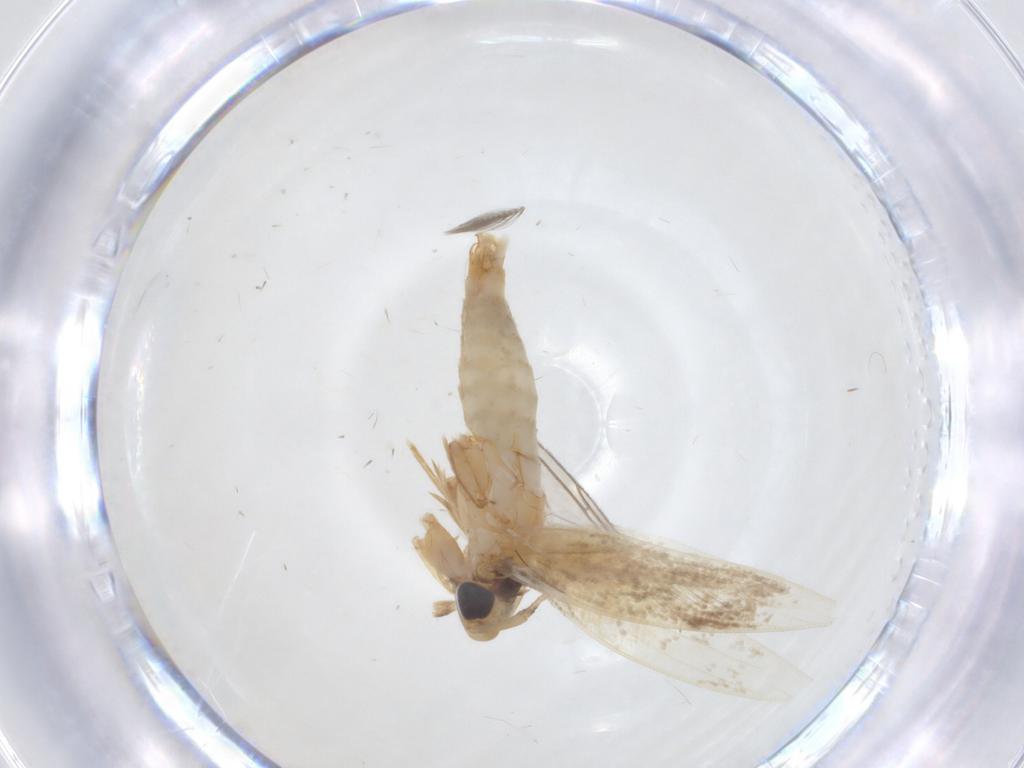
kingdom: Animalia
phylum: Arthropoda
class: Insecta
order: Lepidoptera
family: Tineidae
